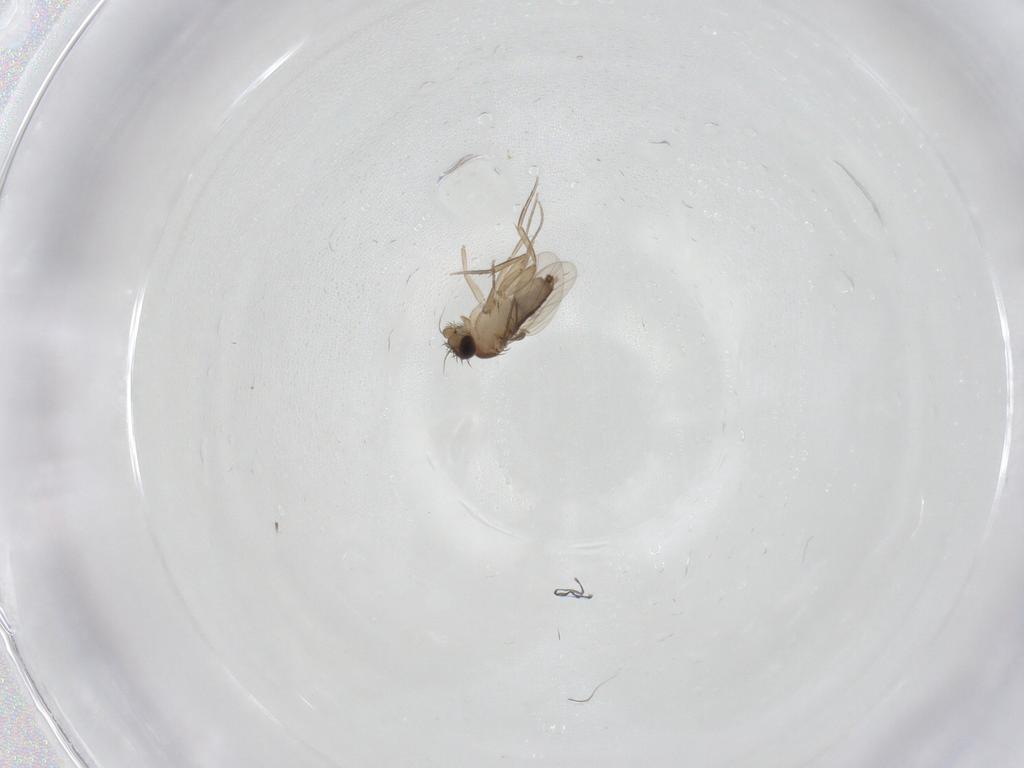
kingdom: Animalia
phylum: Arthropoda
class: Insecta
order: Diptera
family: Phoridae
